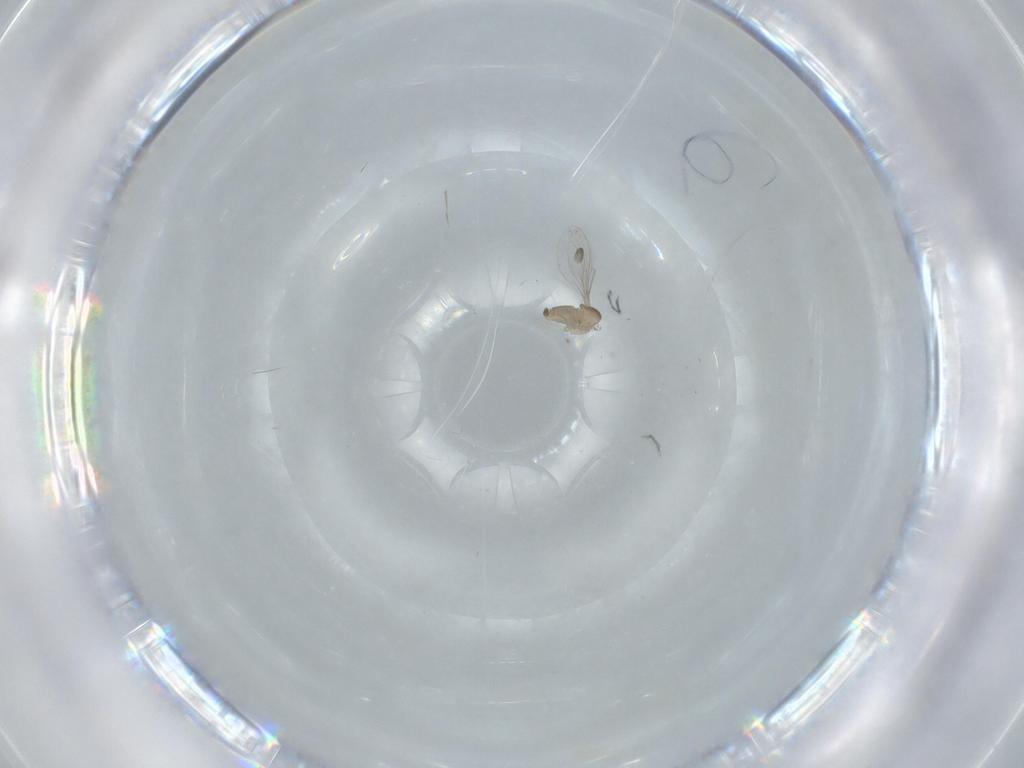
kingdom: Animalia
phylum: Arthropoda
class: Insecta
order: Diptera
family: Cecidomyiidae
